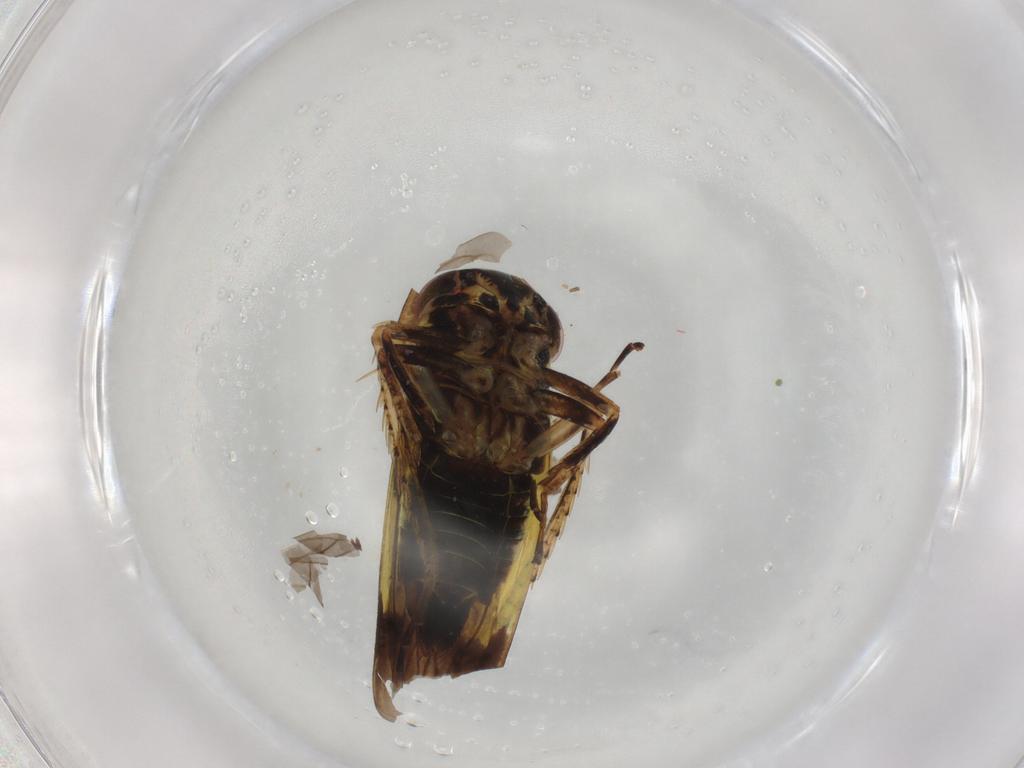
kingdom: Animalia
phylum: Arthropoda
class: Insecta
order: Hemiptera
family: Cicadellidae
